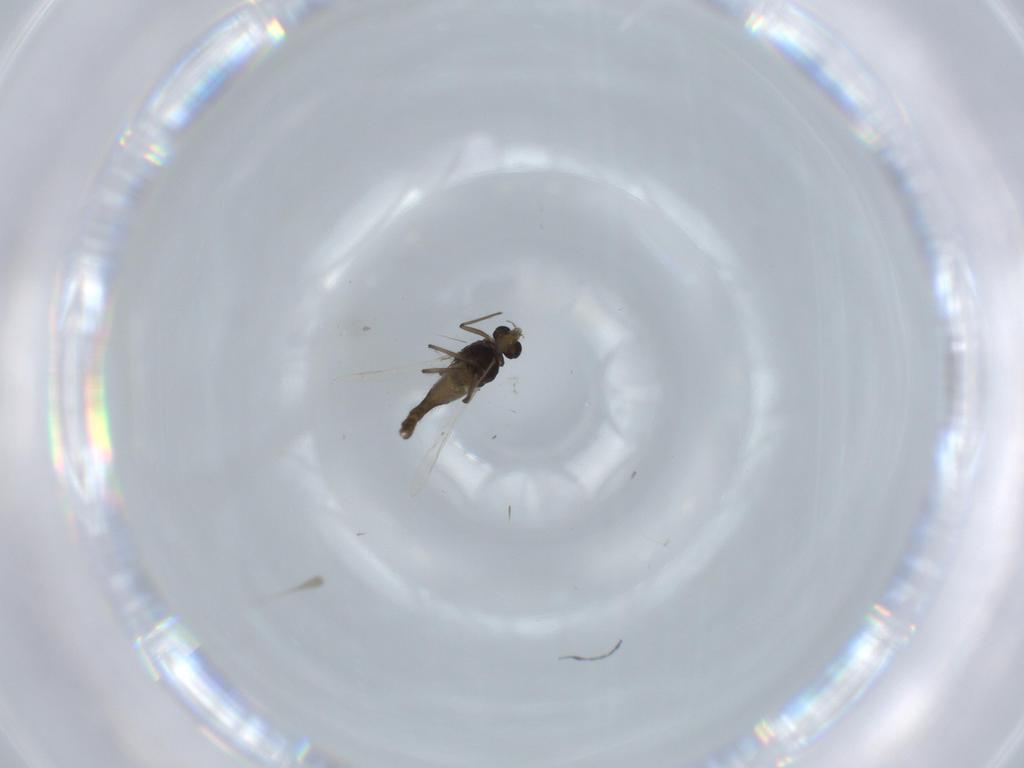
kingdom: Animalia
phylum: Arthropoda
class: Insecta
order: Diptera
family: Chironomidae
